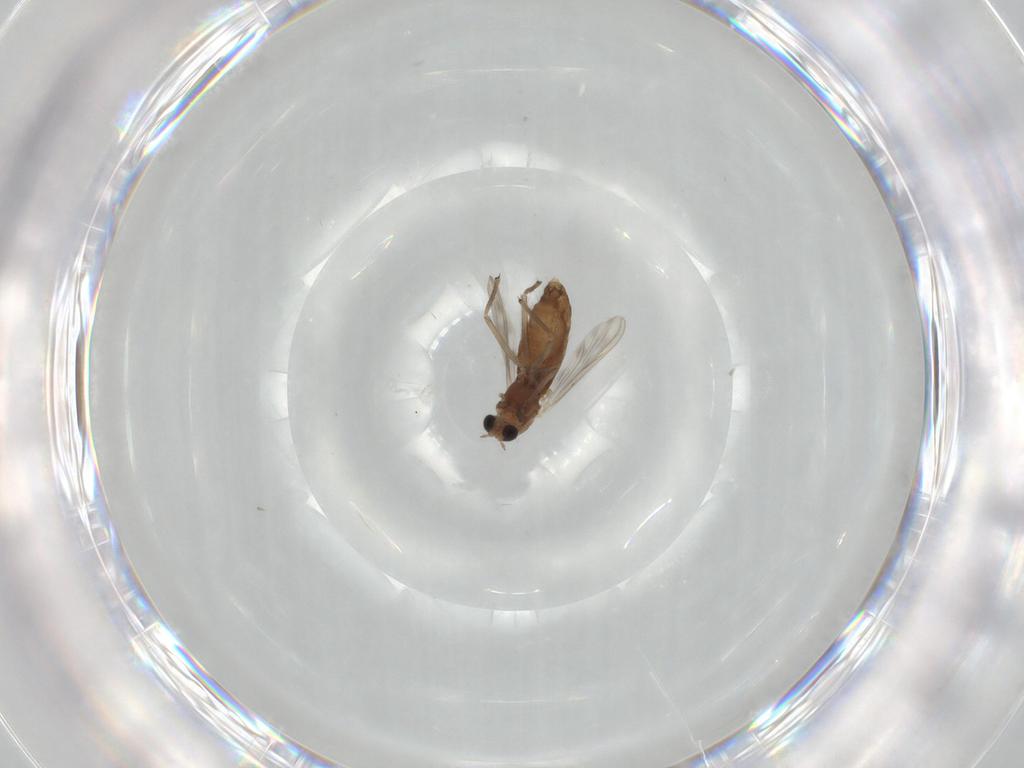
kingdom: Animalia
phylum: Arthropoda
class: Insecta
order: Diptera
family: Chironomidae
